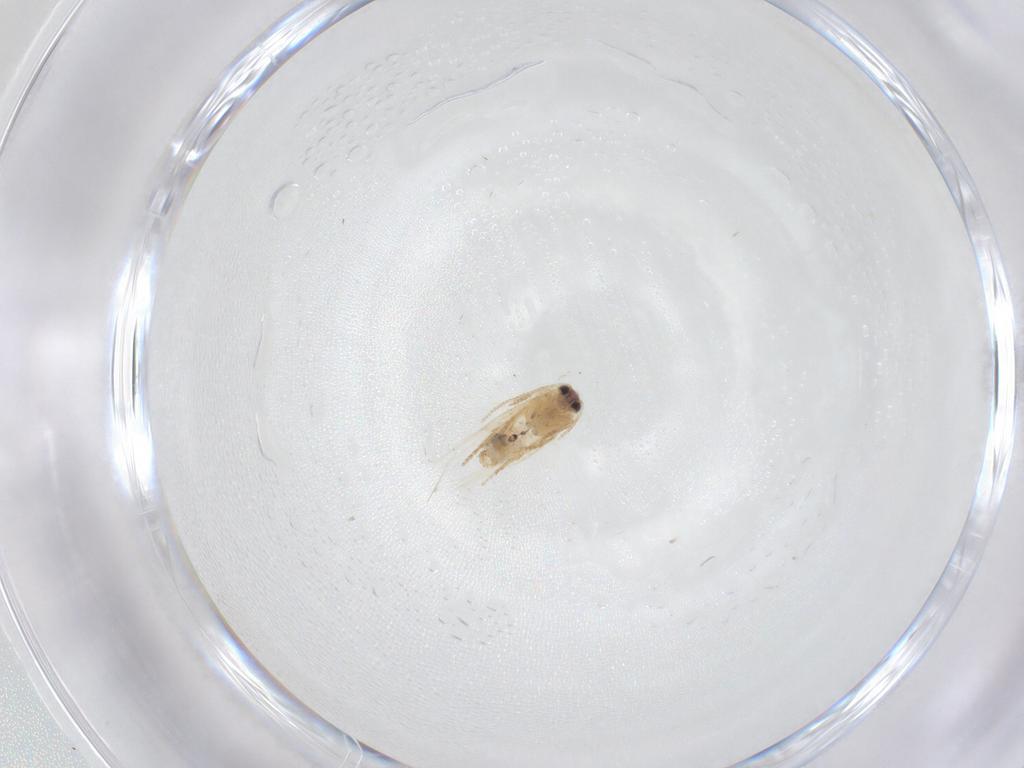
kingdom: Animalia
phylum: Arthropoda
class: Insecta
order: Lepidoptera
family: Nepticulidae
